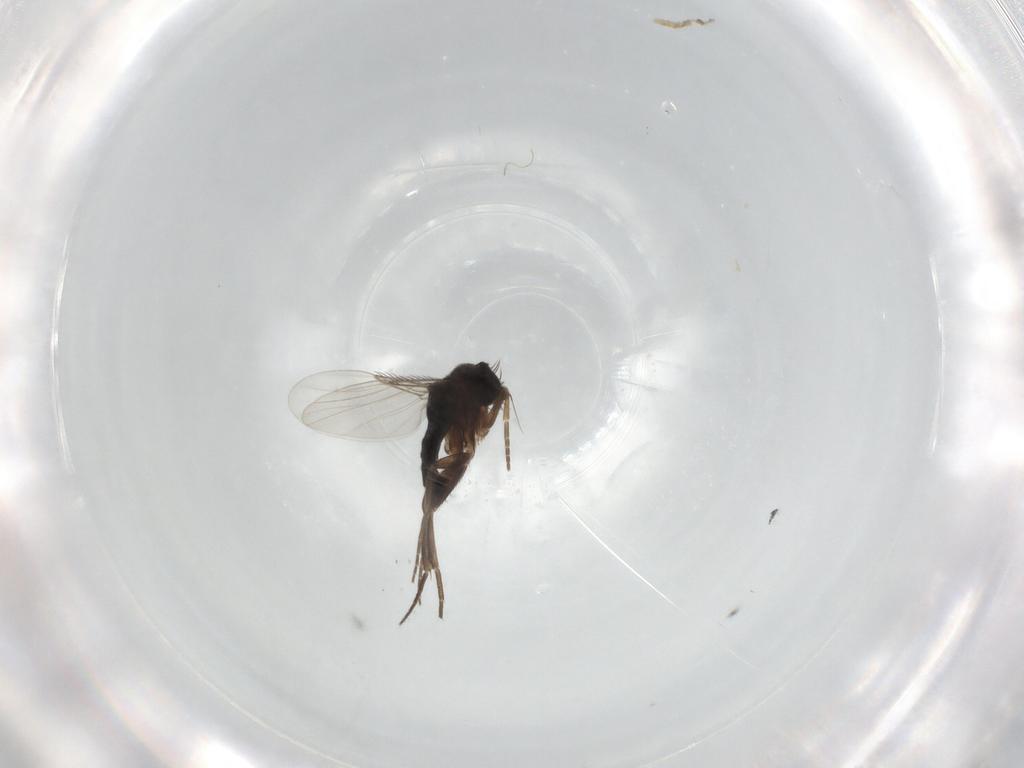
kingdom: Animalia
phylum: Arthropoda
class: Insecta
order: Diptera
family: Phoridae
